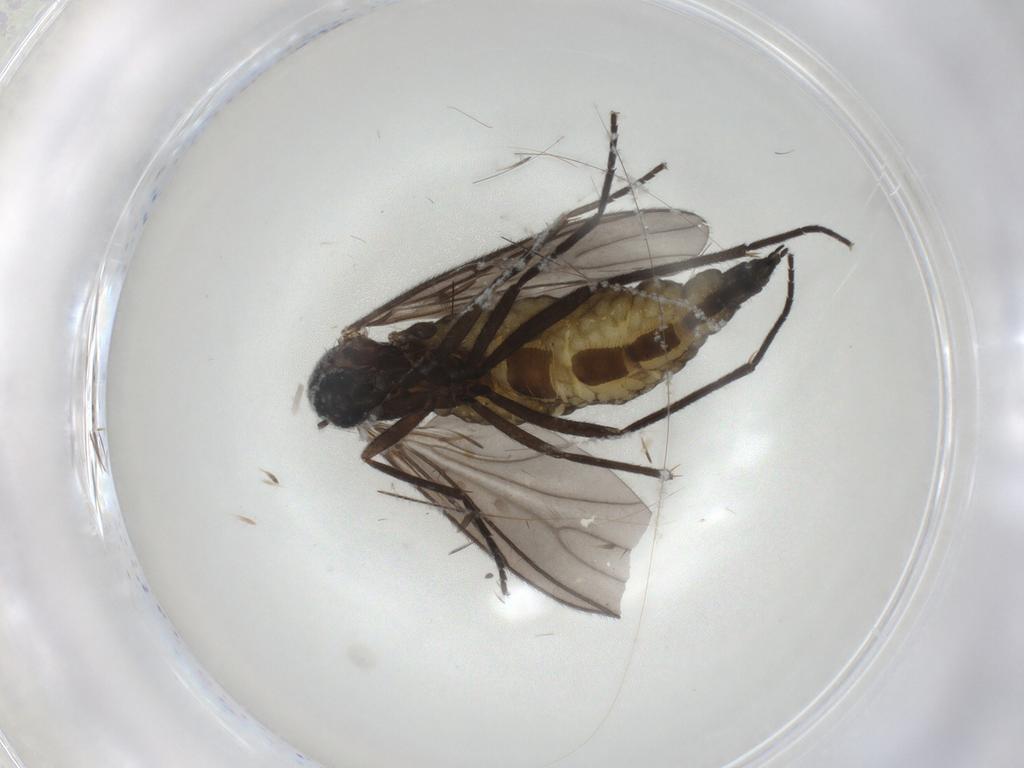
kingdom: Animalia
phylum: Arthropoda
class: Insecta
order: Diptera
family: Sciaridae
